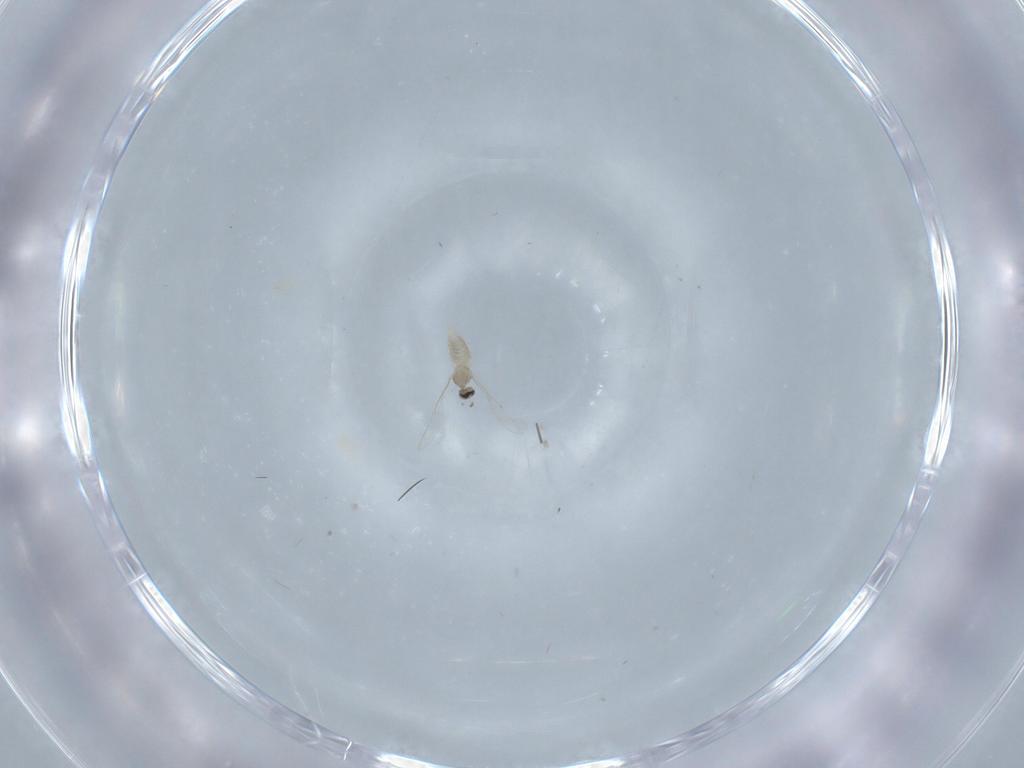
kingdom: Animalia
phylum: Arthropoda
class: Insecta
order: Diptera
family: Cecidomyiidae
